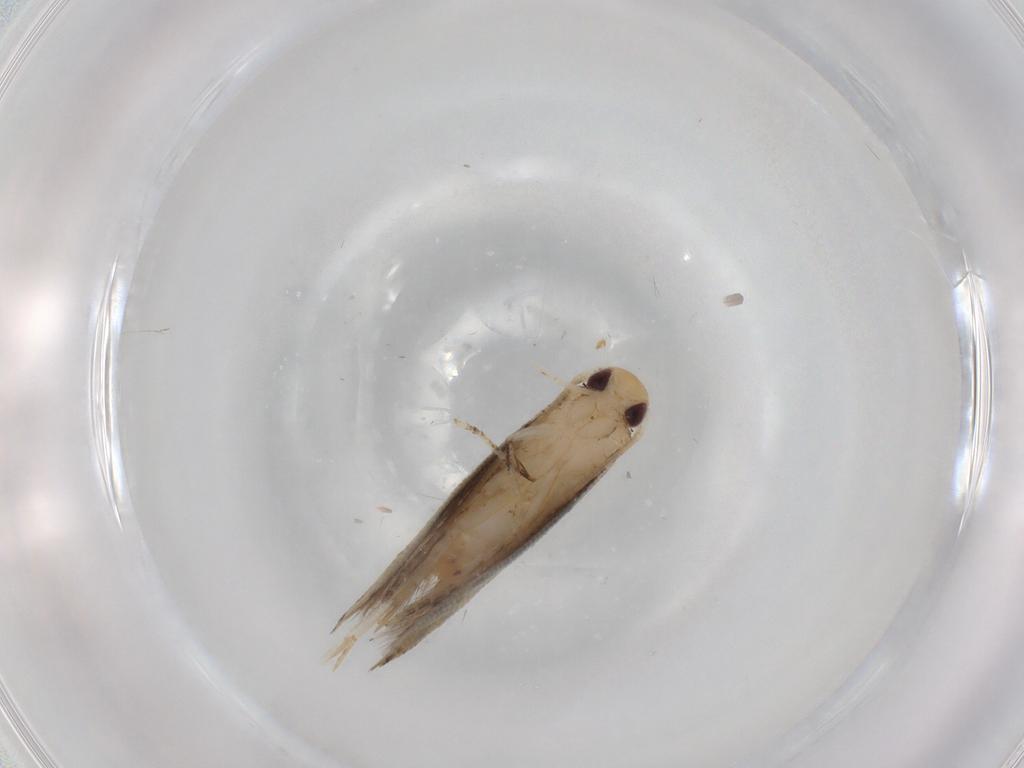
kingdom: Animalia
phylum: Arthropoda
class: Insecta
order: Lepidoptera
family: Momphidae
